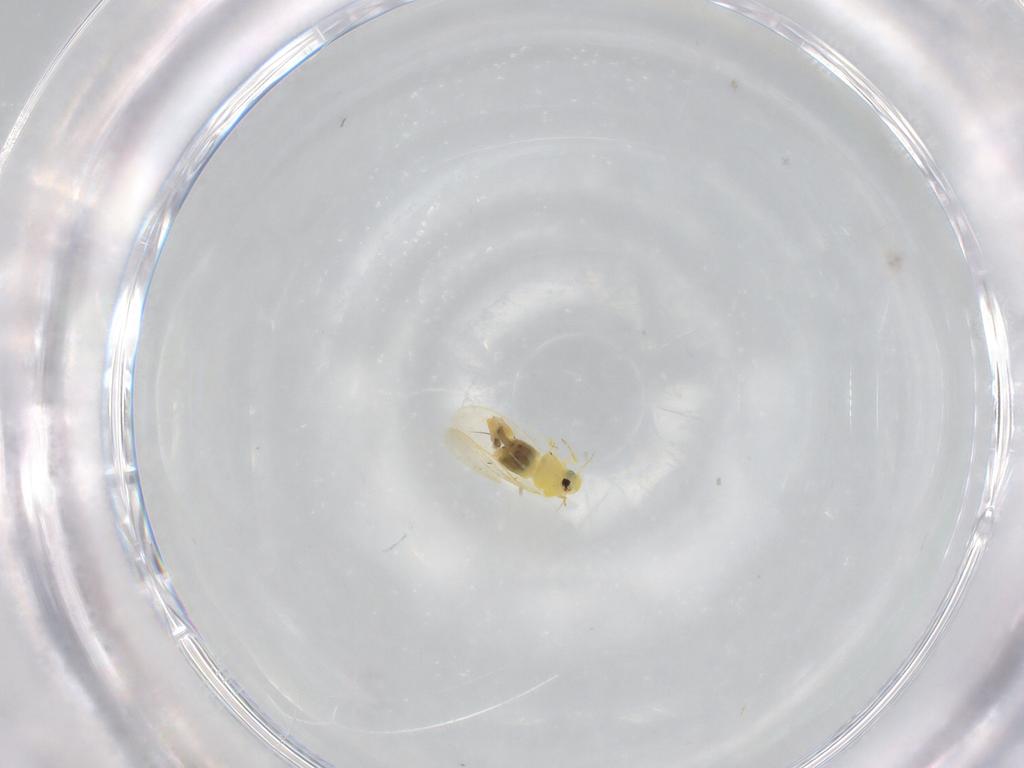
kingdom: Animalia
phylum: Arthropoda
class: Insecta
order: Hemiptera
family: Aleyrodidae
